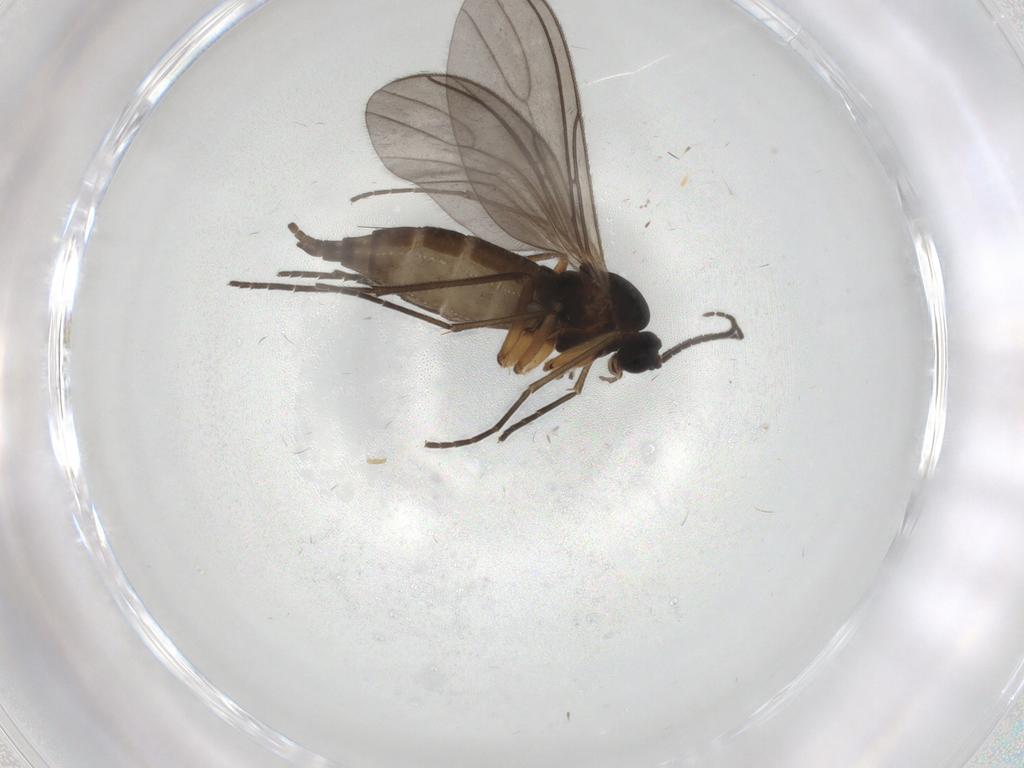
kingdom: Animalia
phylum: Arthropoda
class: Insecta
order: Diptera
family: Sciaridae
